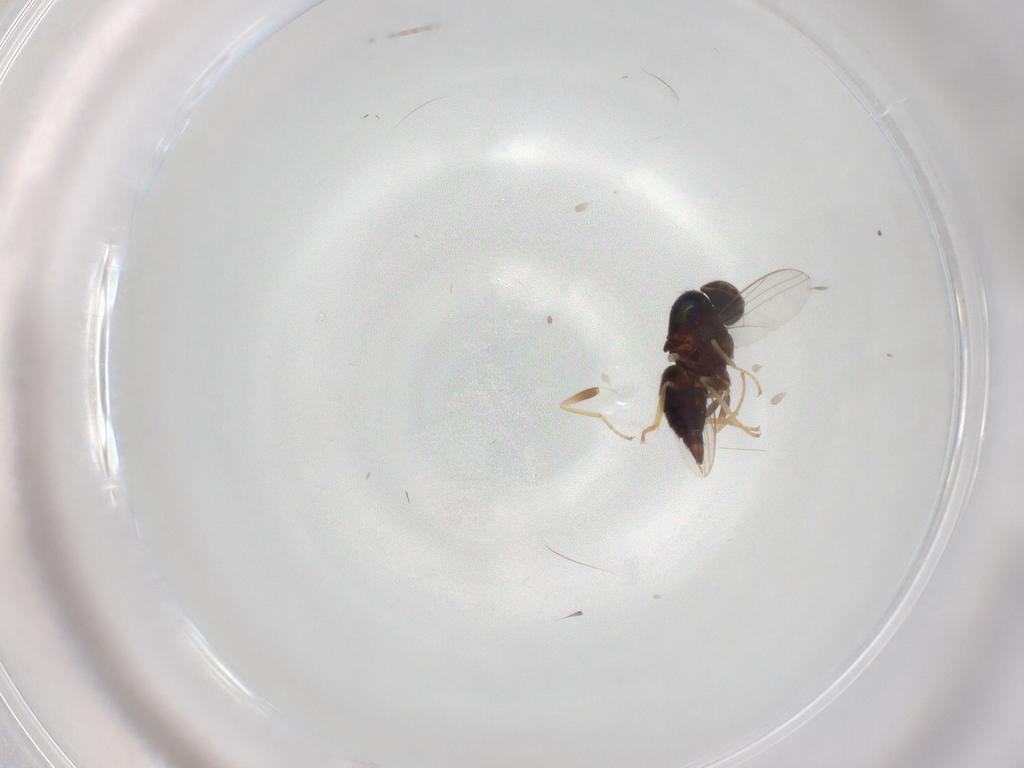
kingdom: Animalia
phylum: Arthropoda
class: Insecta
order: Diptera
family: Dolichopodidae
